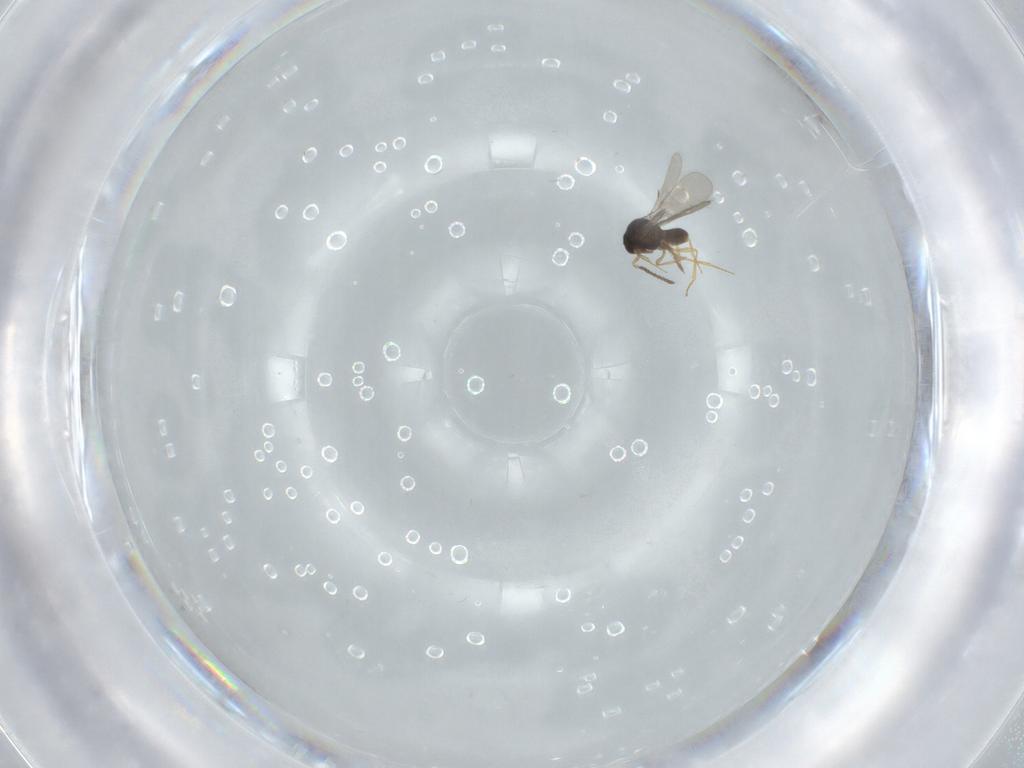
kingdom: Animalia
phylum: Arthropoda
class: Insecta
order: Hymenoptera
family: Scelionidae
